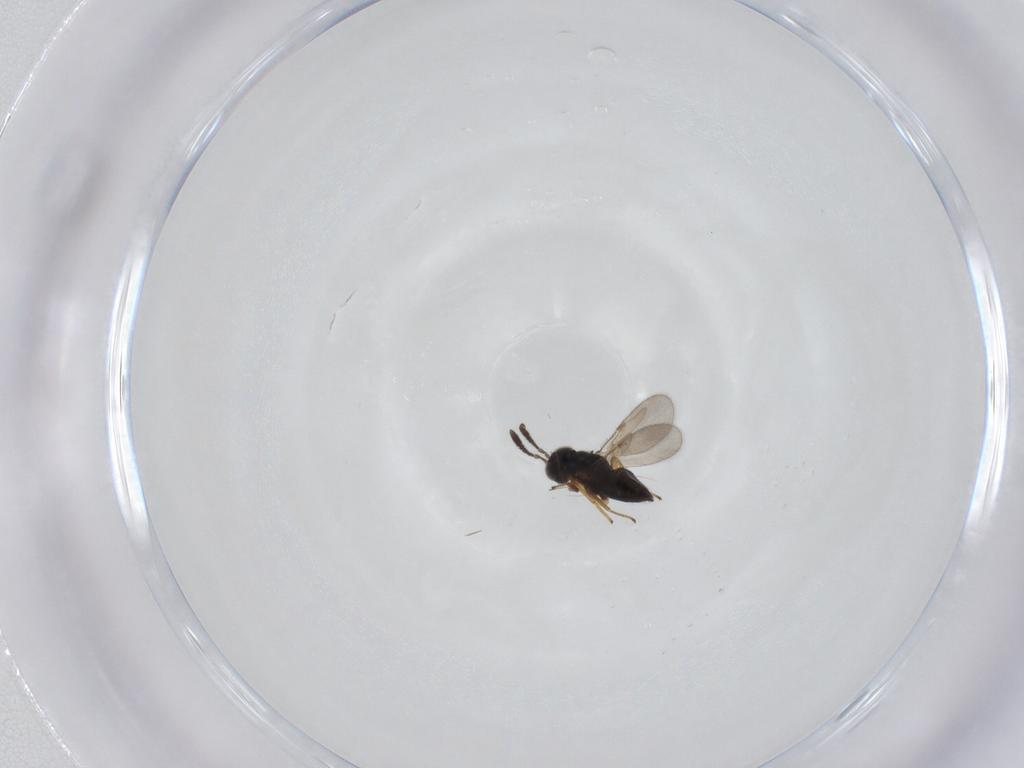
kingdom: Animalia
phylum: Arthropoda
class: Insecta
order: Hymenoptera
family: Encyrtidae
